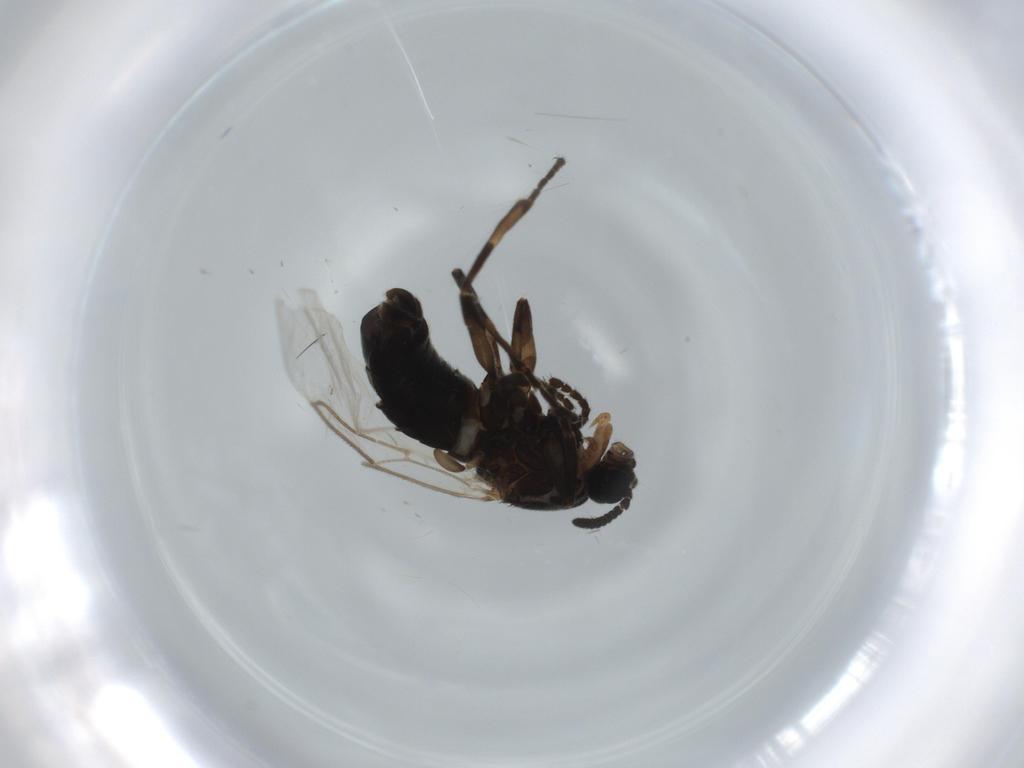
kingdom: Animalia
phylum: Arthropoda
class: Insecta
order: Diptera
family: Scatopsidae
